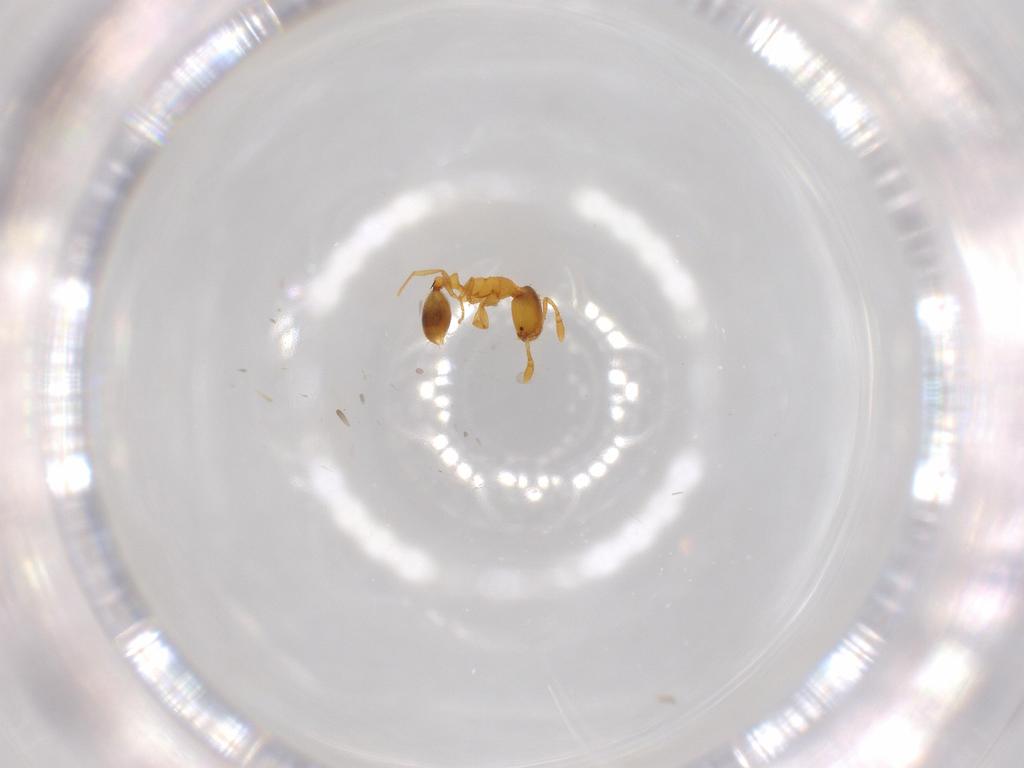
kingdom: Animalia
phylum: Arthropoda
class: Insecta
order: Hymenoptera
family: Formicidae
